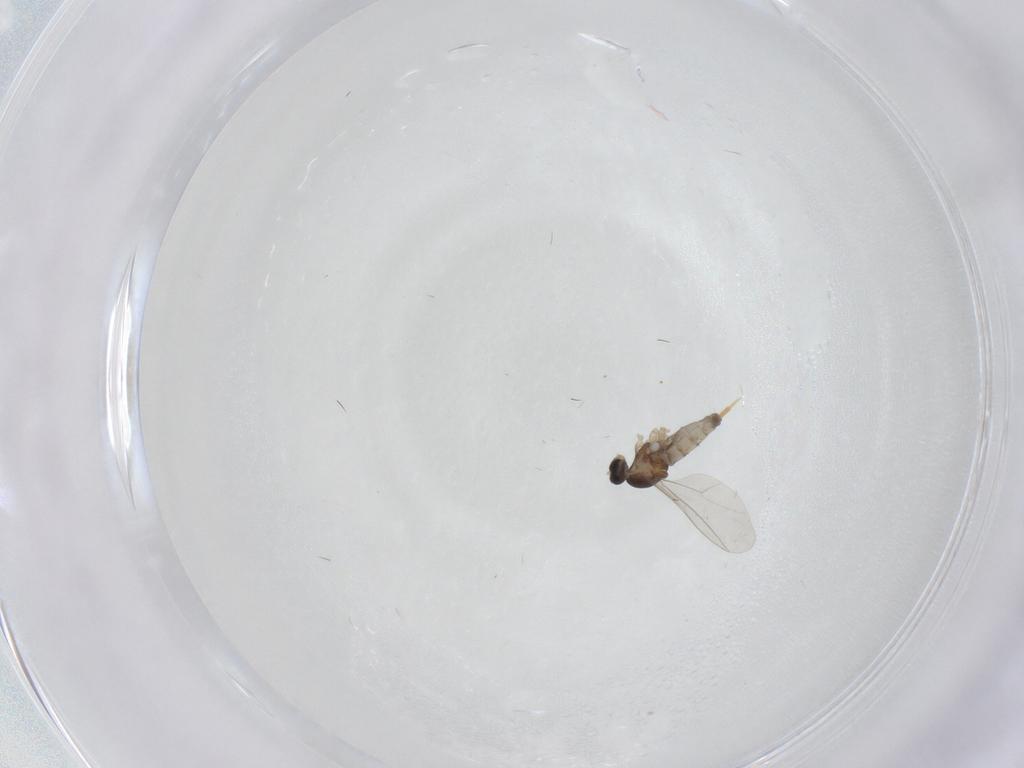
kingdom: Animalia
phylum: Arthropoda
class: Insecta
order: Diptera
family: Cecidomyiidae
